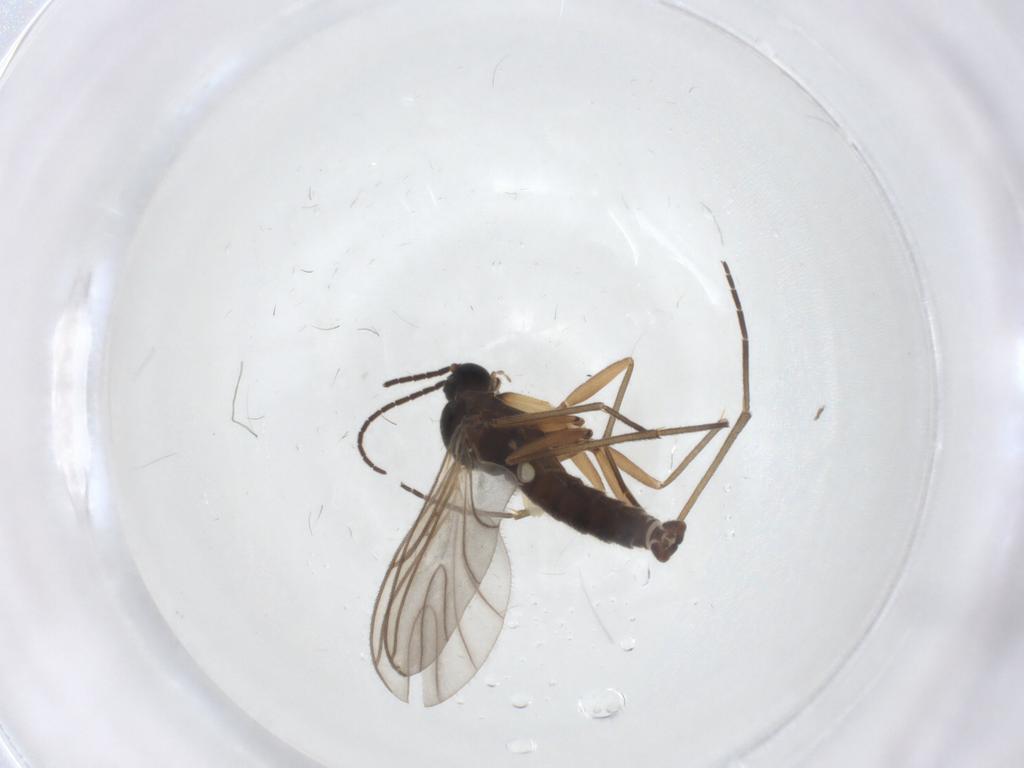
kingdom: Animalia
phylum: Arthropoda
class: Insecta
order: Diptera
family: Sciaridae
